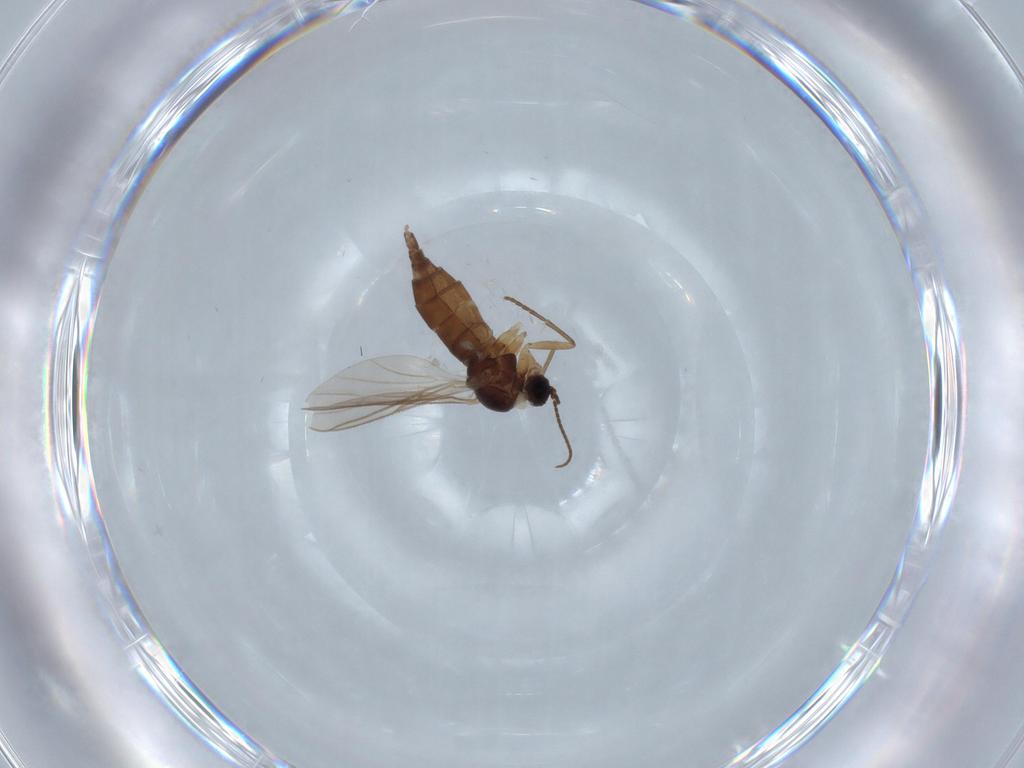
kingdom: Animalia
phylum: Arthropoda
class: Insecta
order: Diptera
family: Sciaridae
